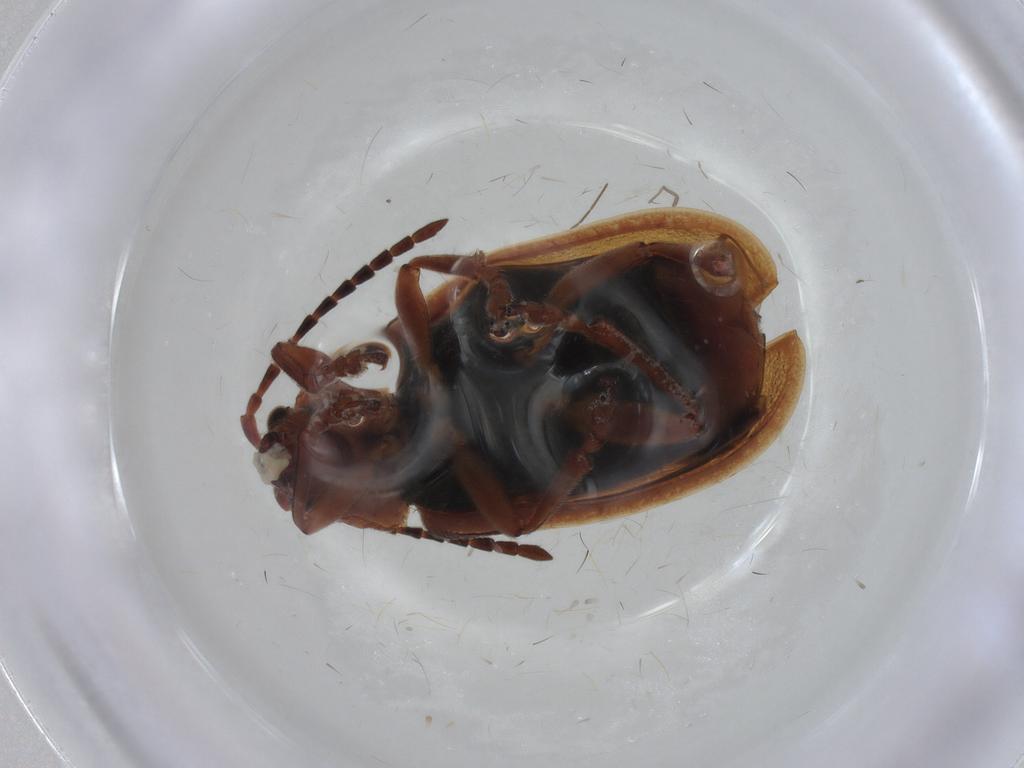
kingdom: Animalia
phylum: Arthropoda
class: Insecta
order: Coleoptera
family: Chrysomelidae
